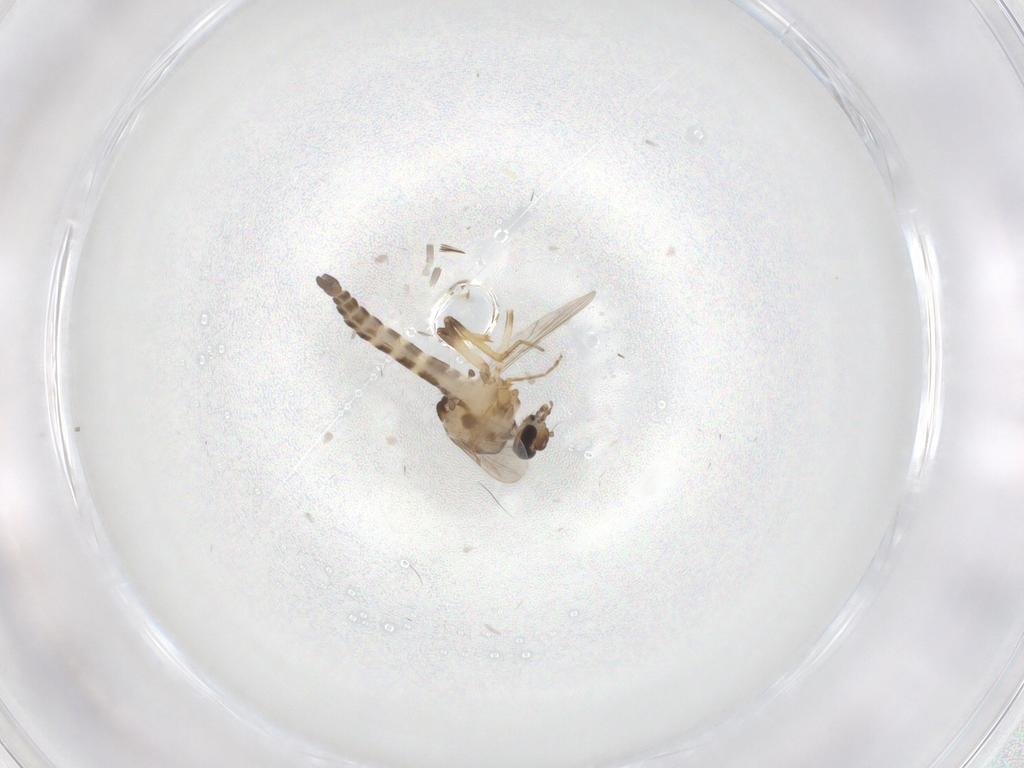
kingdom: Animalia
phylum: Arthropoda
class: Insecta
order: Diptera
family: Ceratopogonidae
